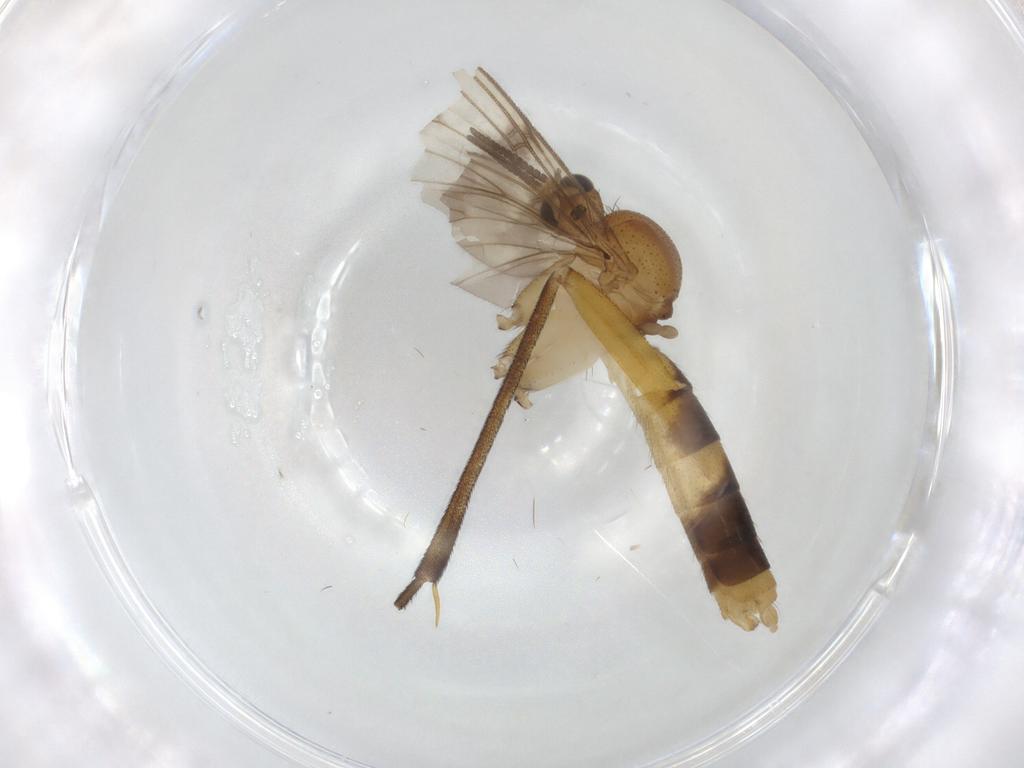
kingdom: Animalia
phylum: Arthropoda
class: Insecta
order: Diptera
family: Mycetophilidae
